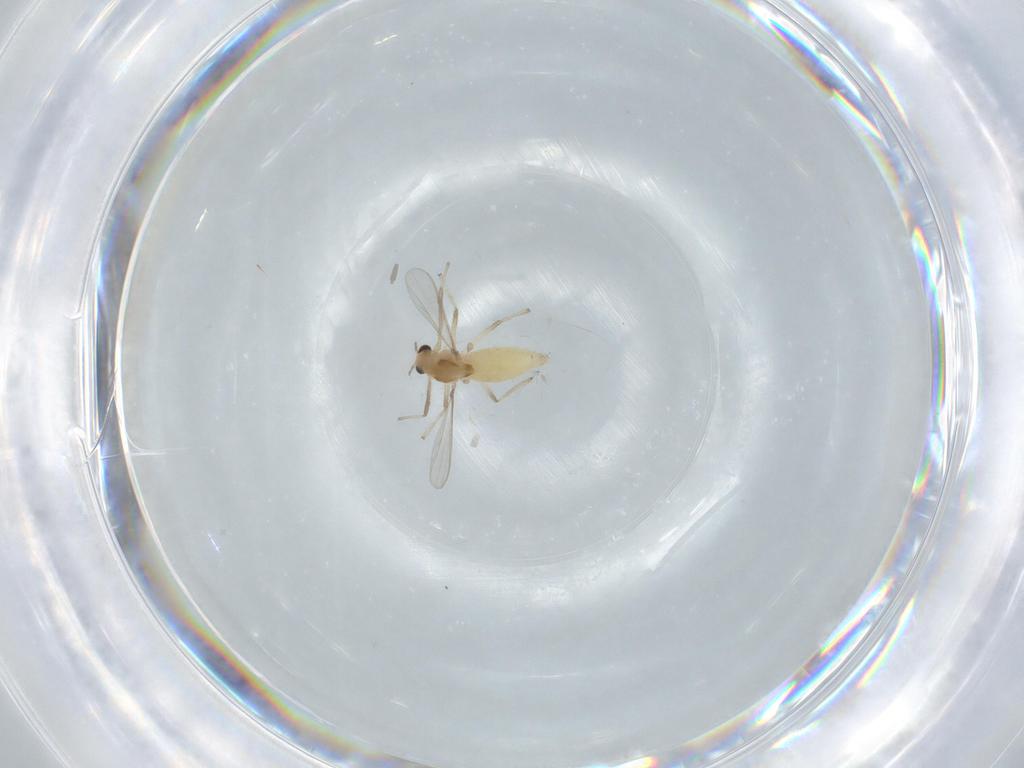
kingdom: Animalia
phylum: Arthropoda
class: Insecta
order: Diptera
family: Chironomidae
